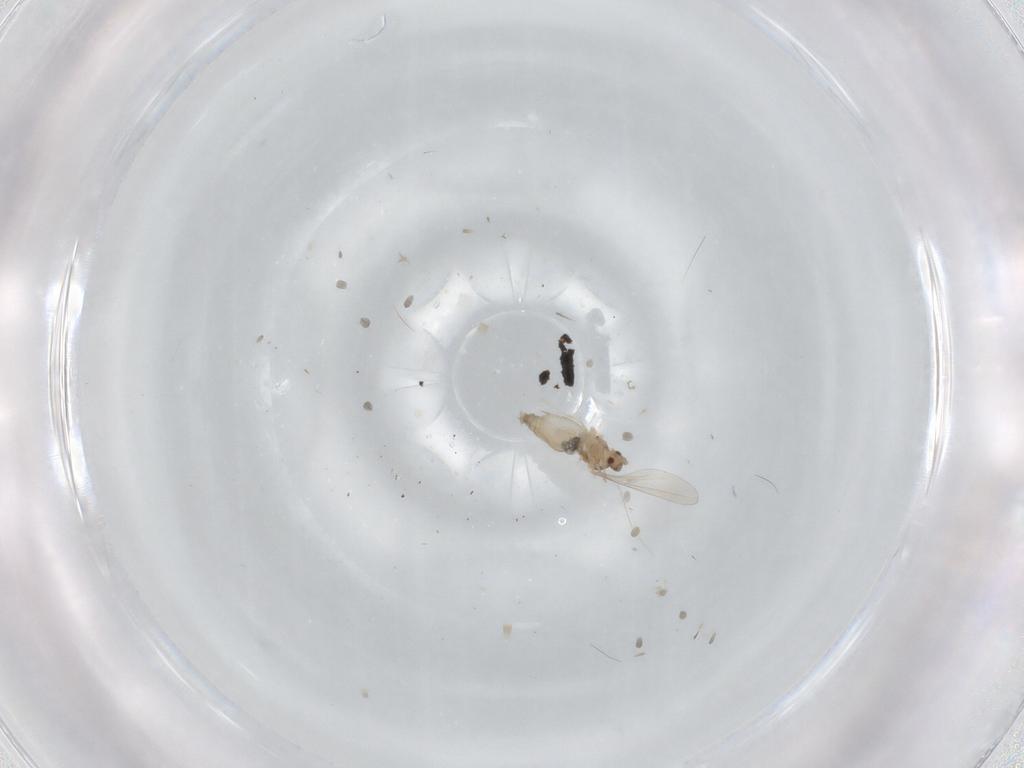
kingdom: Animalia
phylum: Arthropoda
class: Insecta
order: Diptera
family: Cecidomyiidae
